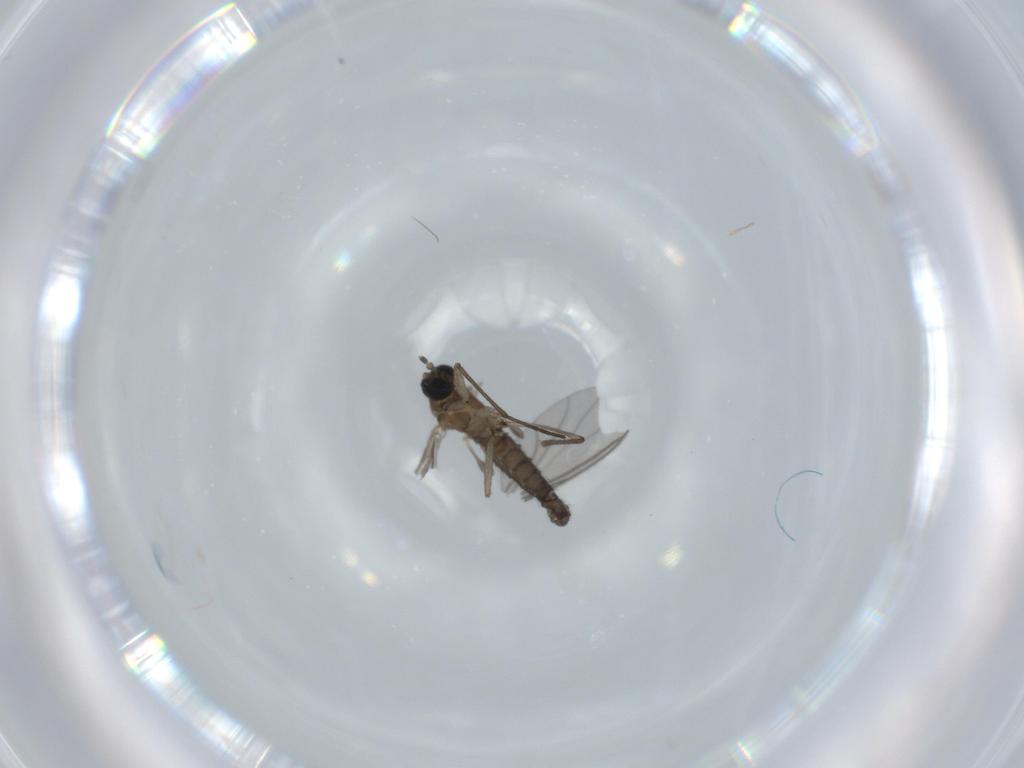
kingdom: Animalia
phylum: Arthropoda
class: Insecta
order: Diptera
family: Sciaridae
